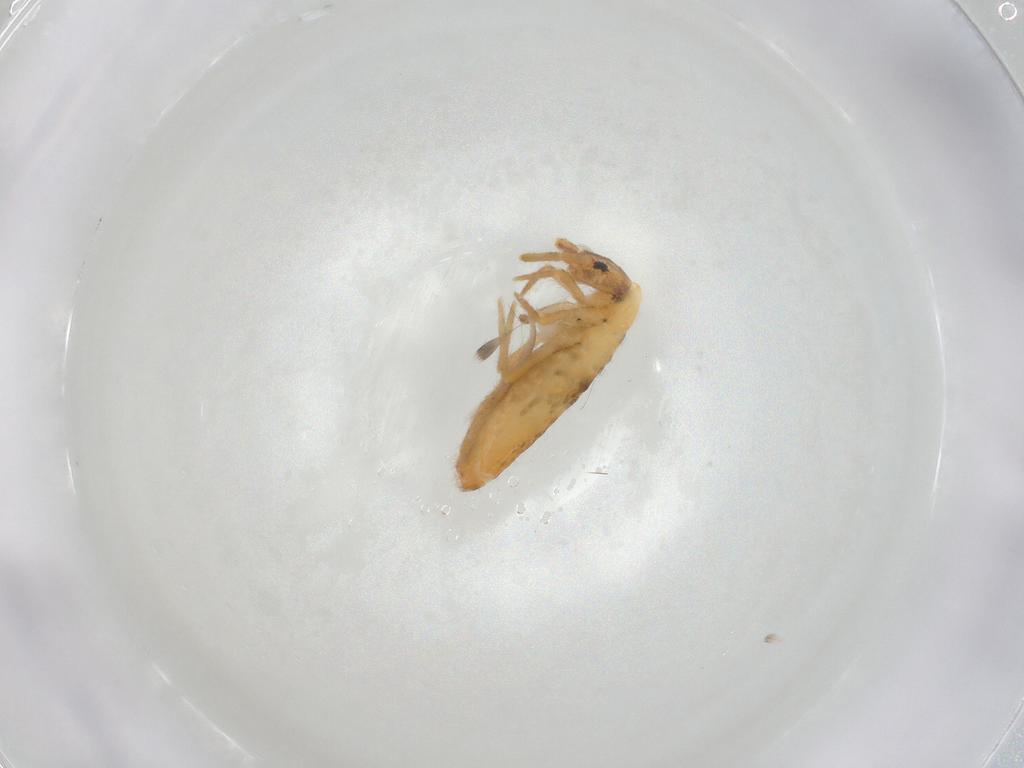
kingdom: Animalia
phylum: Arthropoda
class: Collembola
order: Entomobryomorpha
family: Entomobryidae
